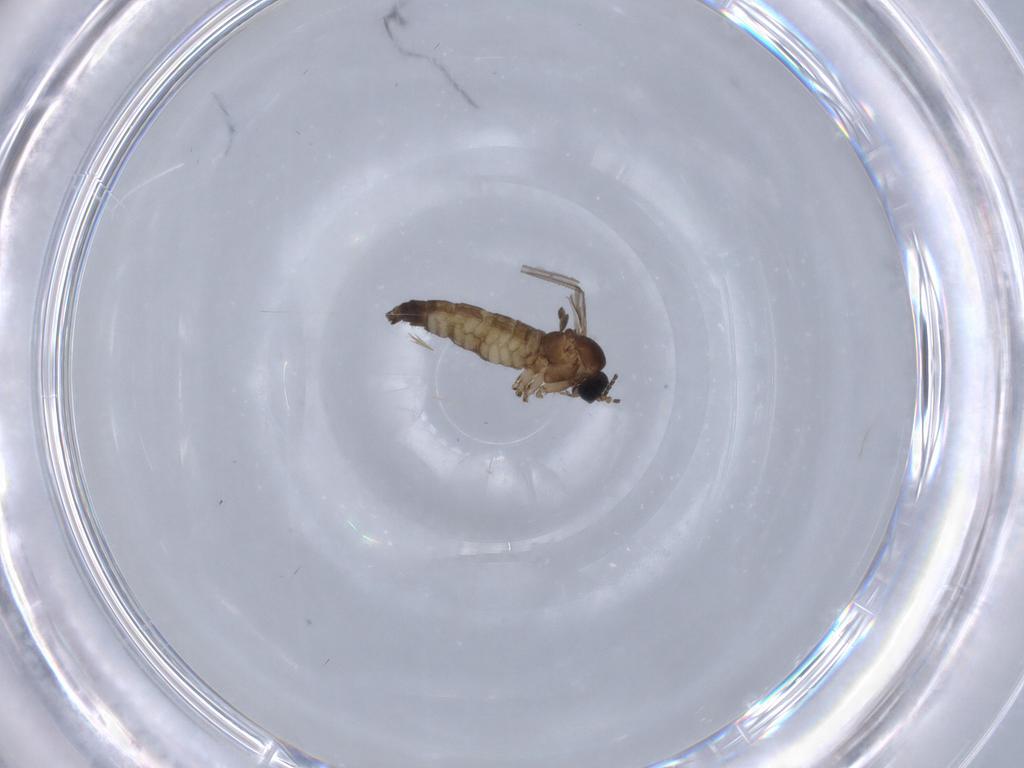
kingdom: Animalia
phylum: Arthropoda
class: Insecta
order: Diptera
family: Sciaridae
